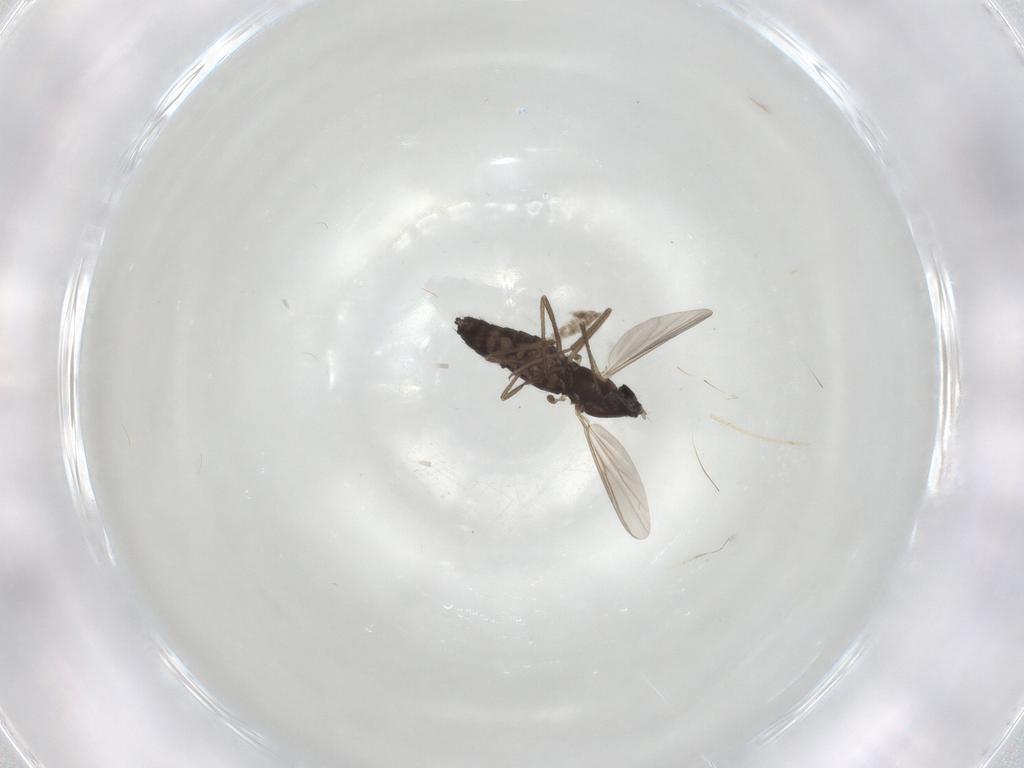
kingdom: Animalia
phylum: Arthropoda
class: Insecta
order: Diptera
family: Chironomidae
